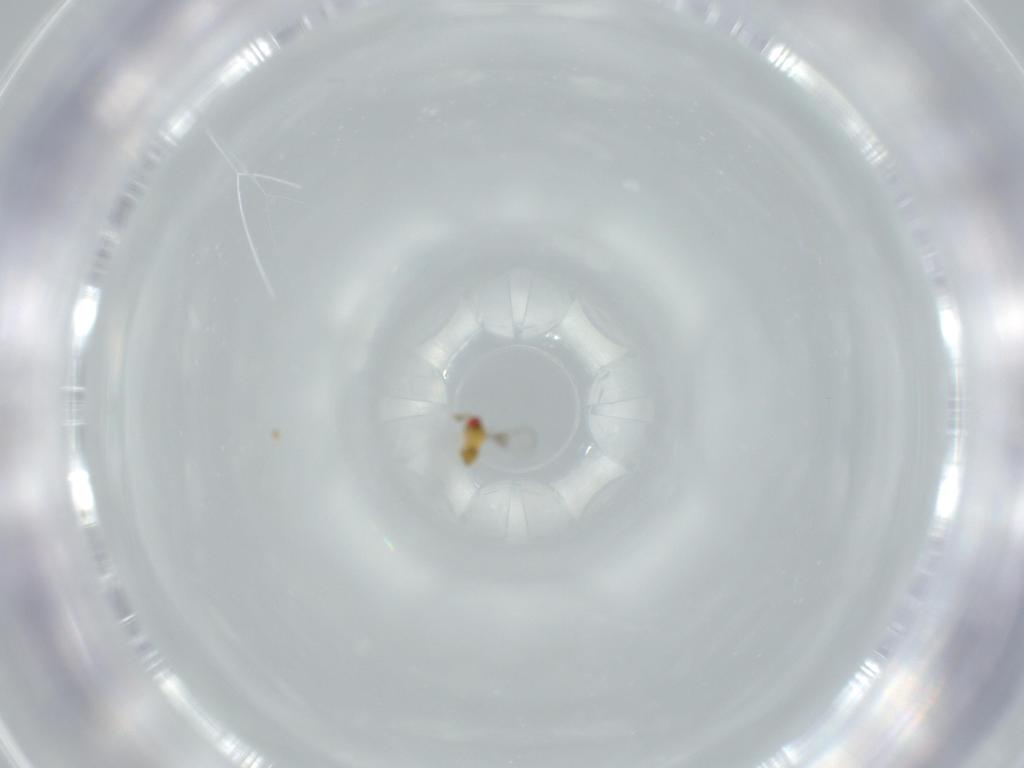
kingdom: Animalia
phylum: Arthropoda
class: Insecta
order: Hymenoptera
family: Trichogrammatidae
